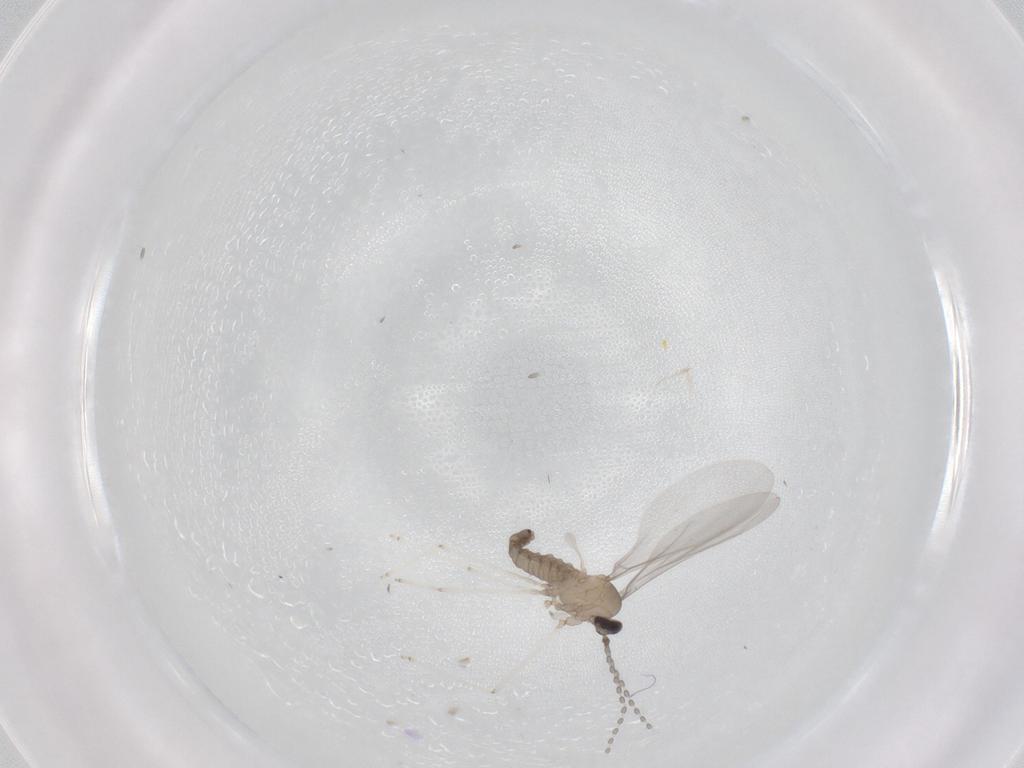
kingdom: Animalia
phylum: Arthropoda
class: Insecta
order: Diptera
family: Cecidomyiidae
